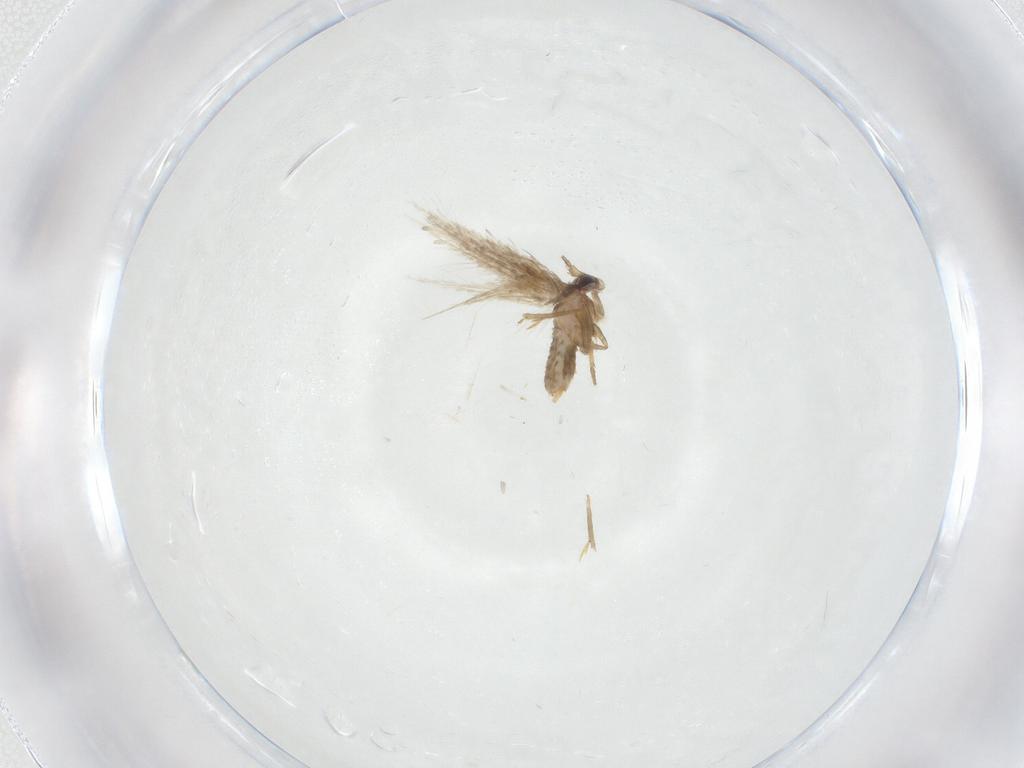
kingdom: Animalia
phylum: Arthropoda
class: Insecta
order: Lepidoptera
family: Nepticulidae
